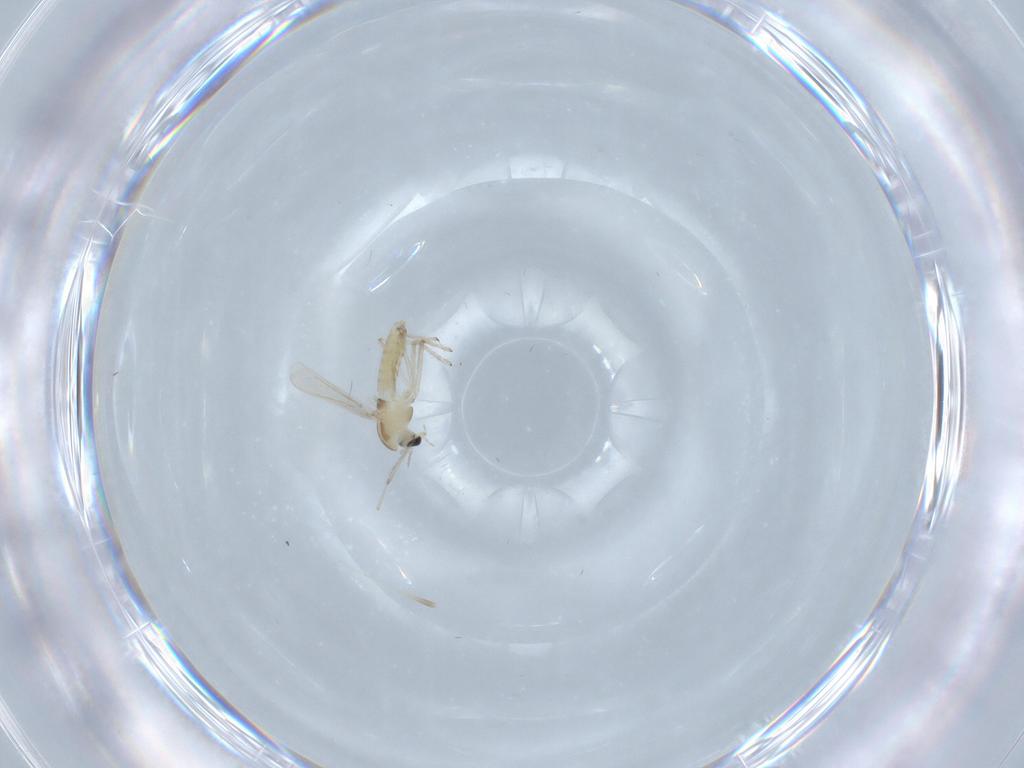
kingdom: Animalia
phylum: Arthropoda
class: Insecta
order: Diptera
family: Chironomidae
